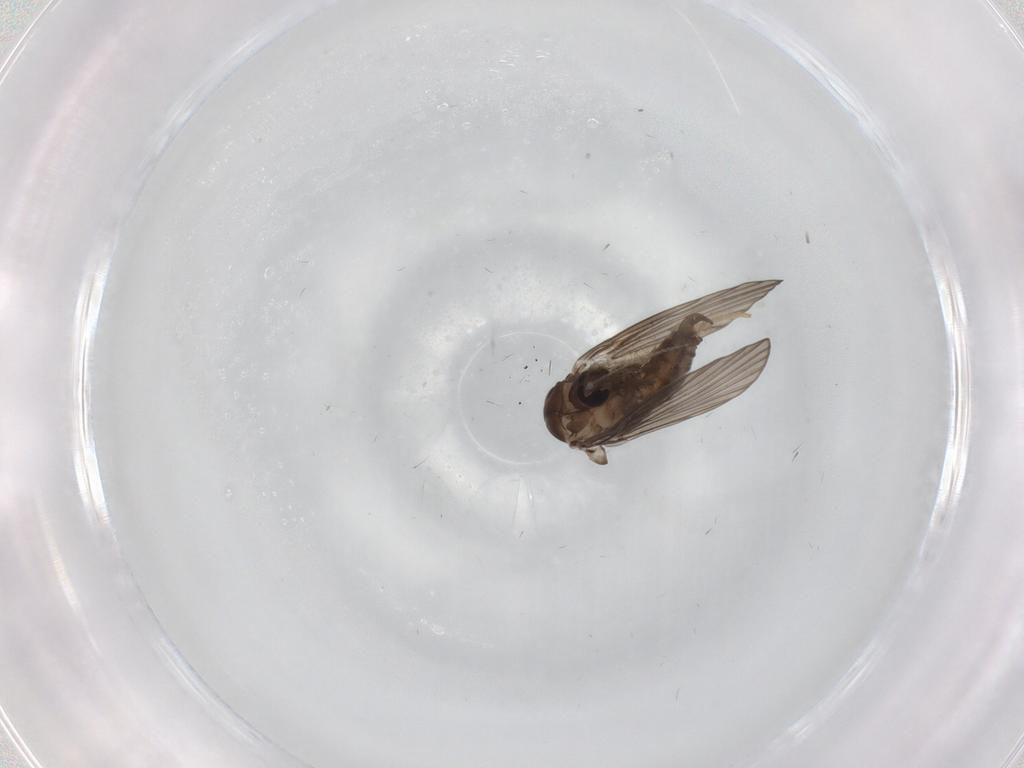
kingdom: Animalia
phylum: Arthropoda
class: Insecta
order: Diptera
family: Psychodidae
